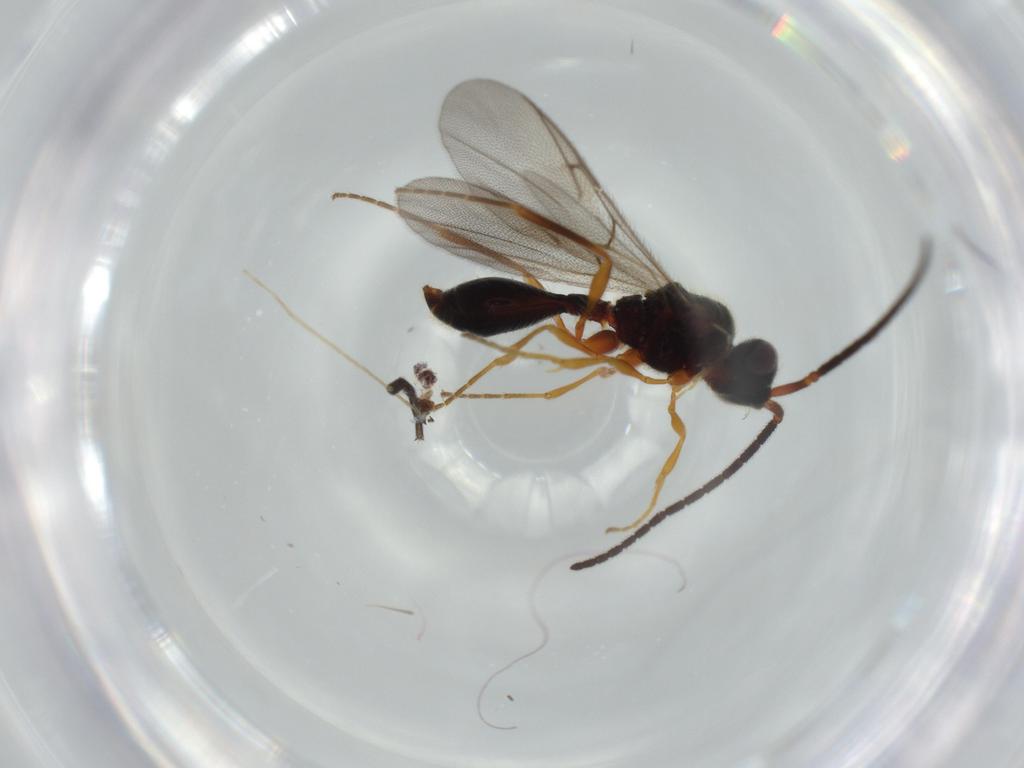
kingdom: Animalia
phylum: Arthropoda
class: Insecta
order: Hymenoptera
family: Diapriidae
